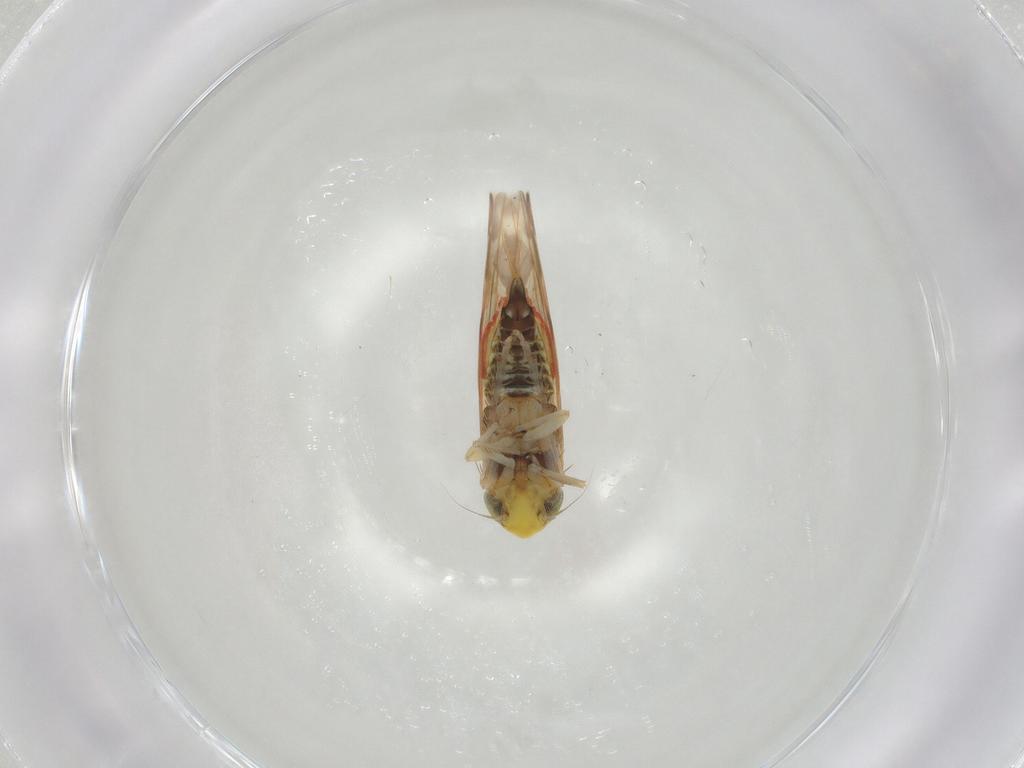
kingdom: Animalia
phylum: Arthropoda
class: Insecta
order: Hemiptera
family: Cicadellidae
